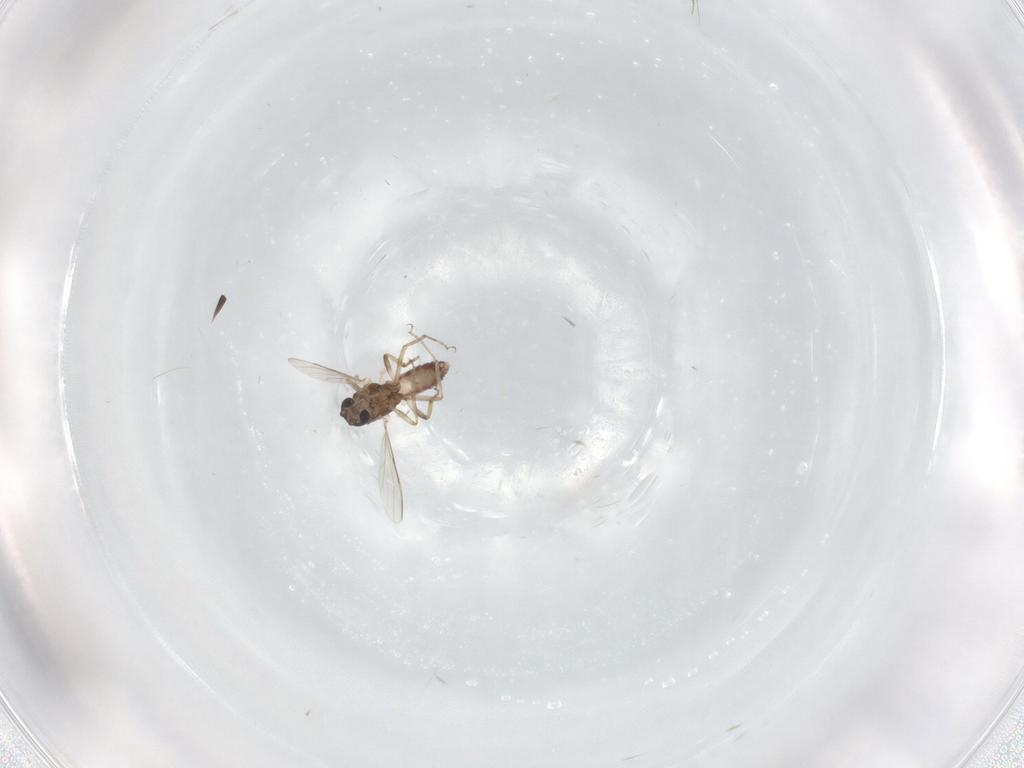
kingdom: Animalia
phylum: Arthropoda
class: Insecta
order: Diptera
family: Ceratopogonidae
